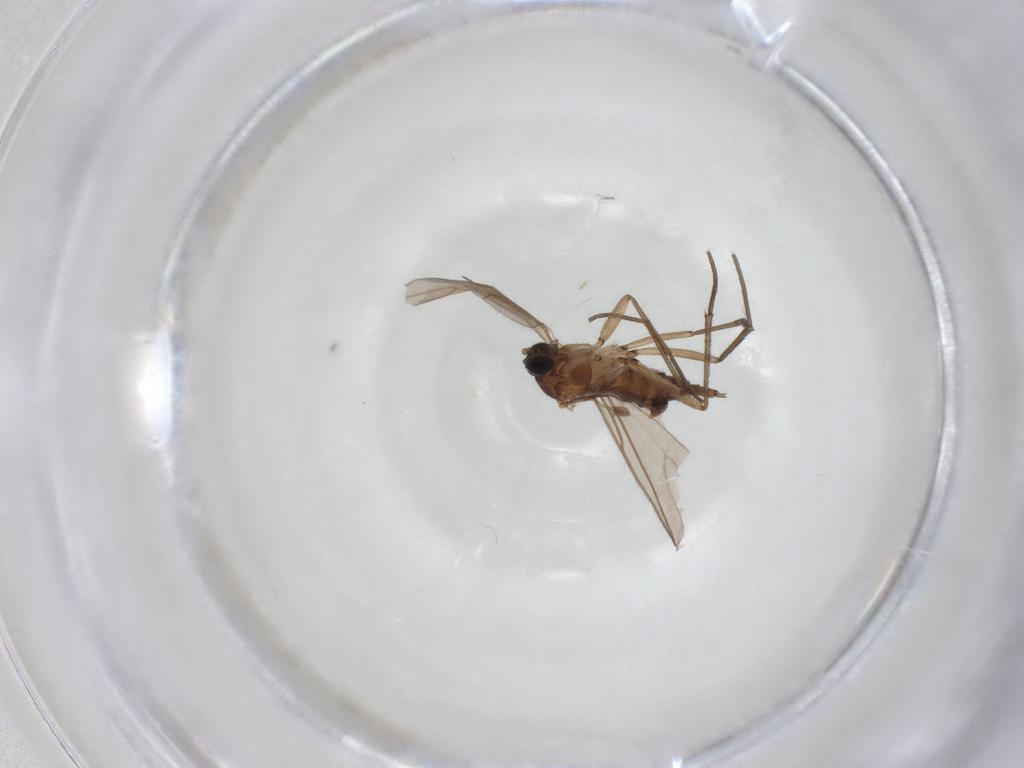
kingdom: Animalia
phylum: Arthropoda
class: Insecta
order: Diptera
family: Sciaridae
